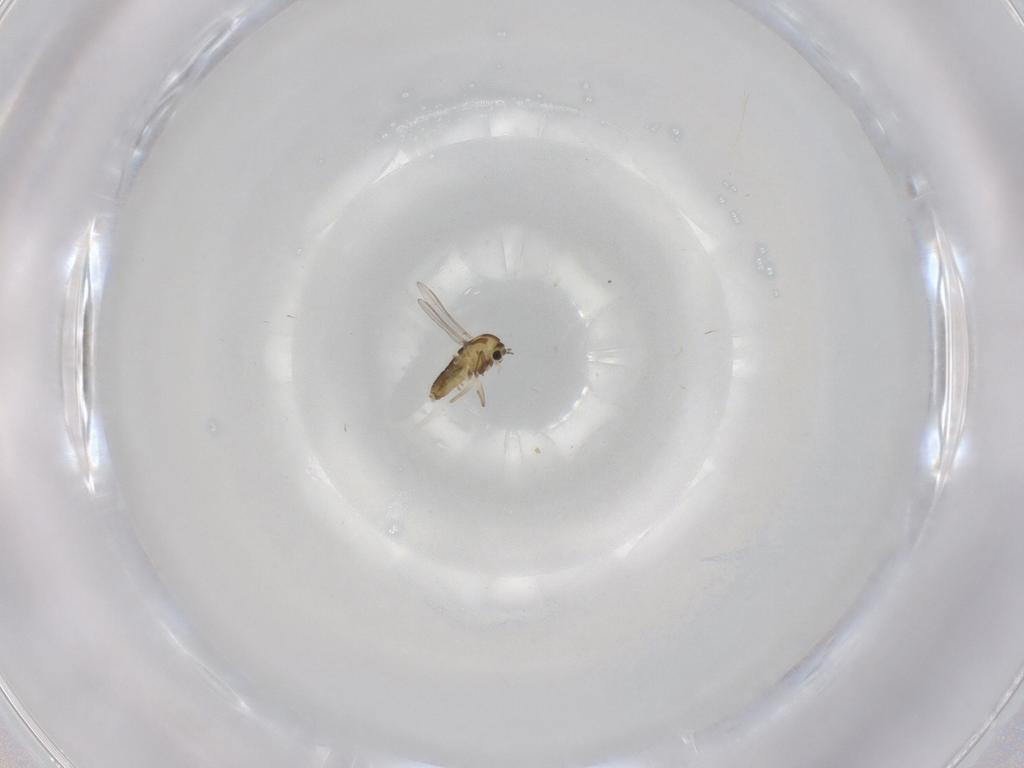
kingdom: Animalia
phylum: Arthropoda
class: Insecta
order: Diptera
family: Chironomidae
